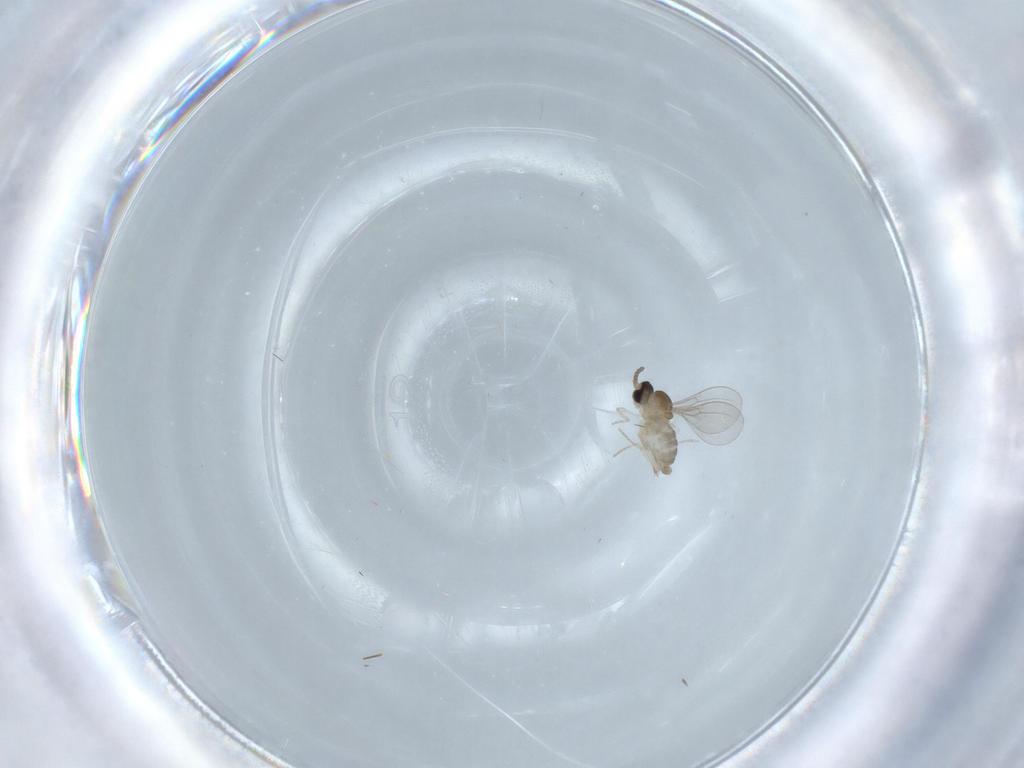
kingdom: Animalia
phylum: Arthropoda
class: Insecta
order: Diptera
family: Cecidomyiidae
